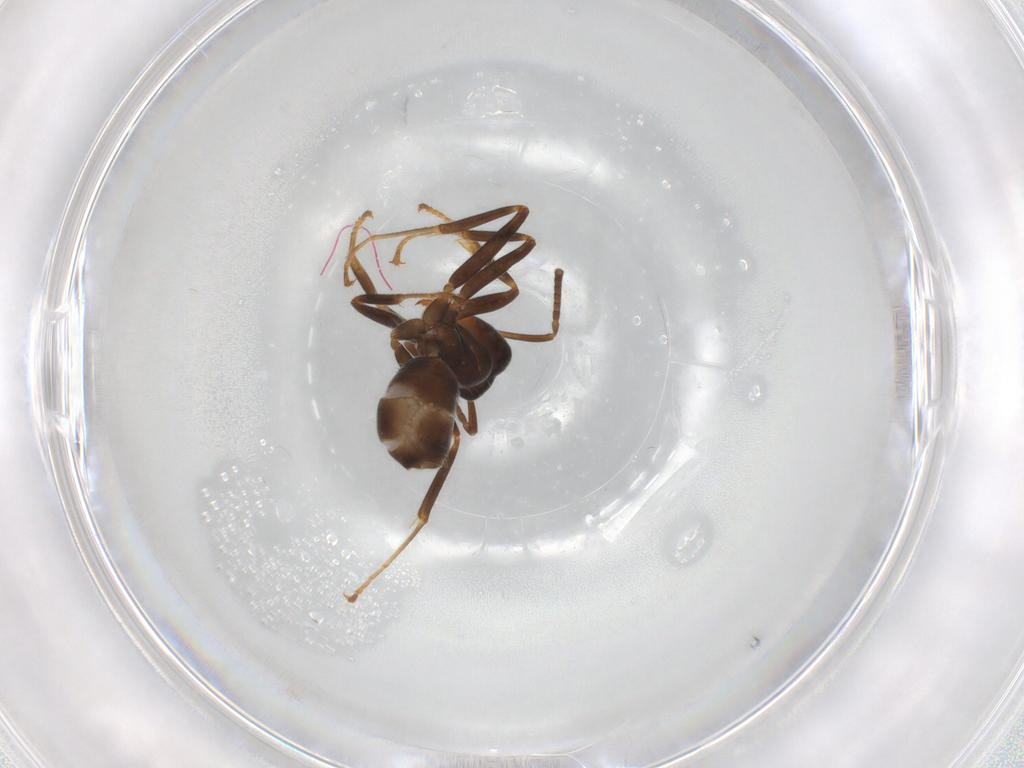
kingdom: Animalia
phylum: Arthropoda
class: Insecta
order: Hymenoptera
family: Formicidae
